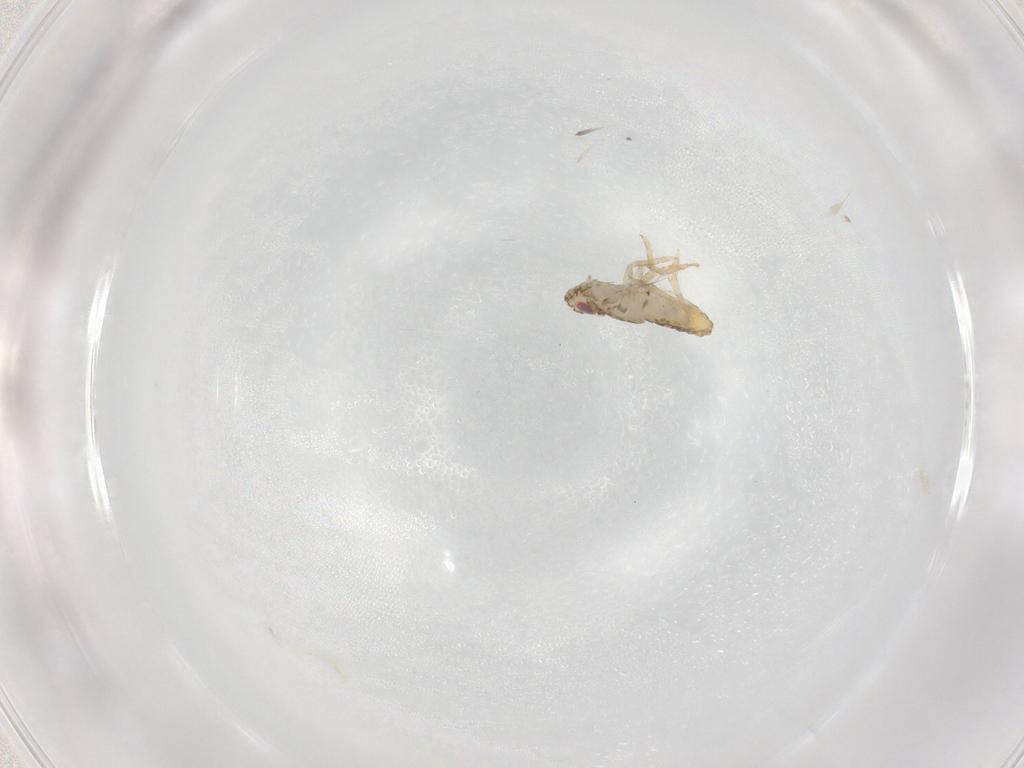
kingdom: Animalia
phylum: Arthropoda
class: Insecta
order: Hemiptera
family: Delphacidae
